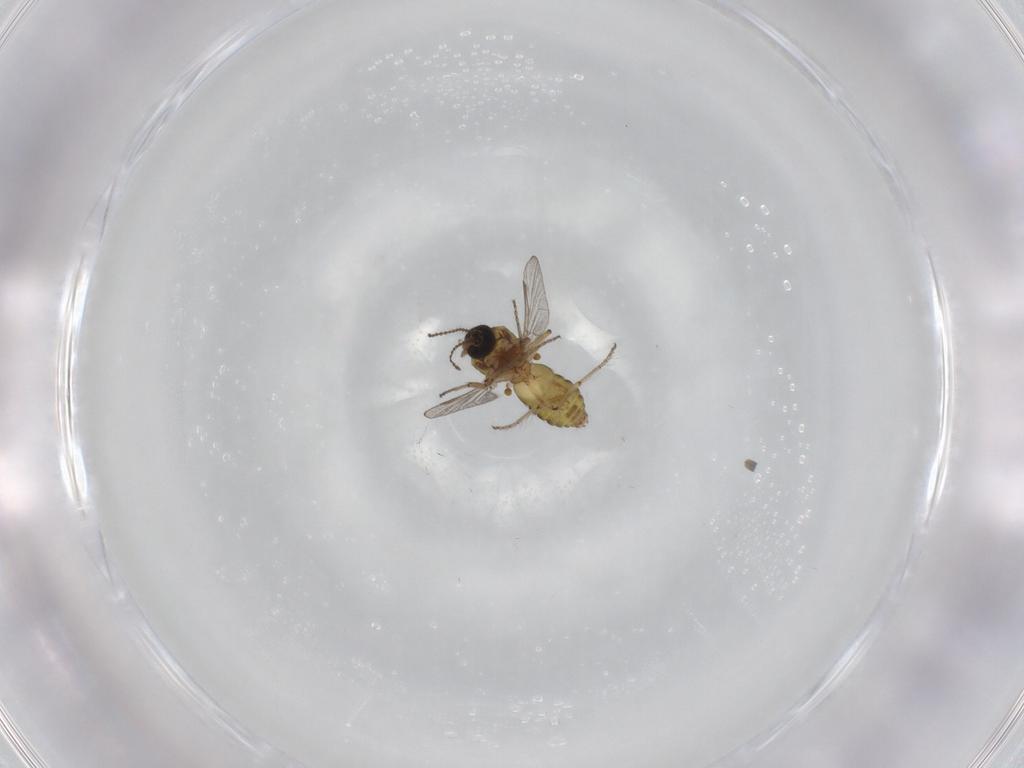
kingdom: Animalia
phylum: Arthropoda
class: Insecta
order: Diptera
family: Ceratopogonidae
